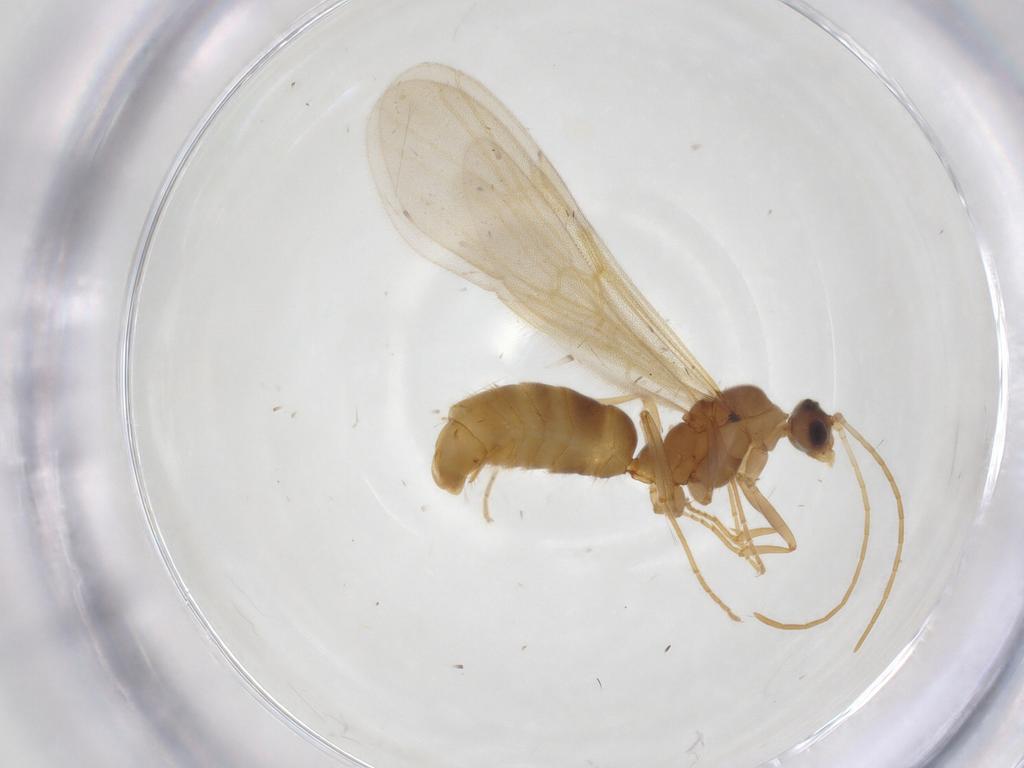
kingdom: Animalia
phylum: Arthropoda
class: Insecta
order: Hymenoptera
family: Formicidae
